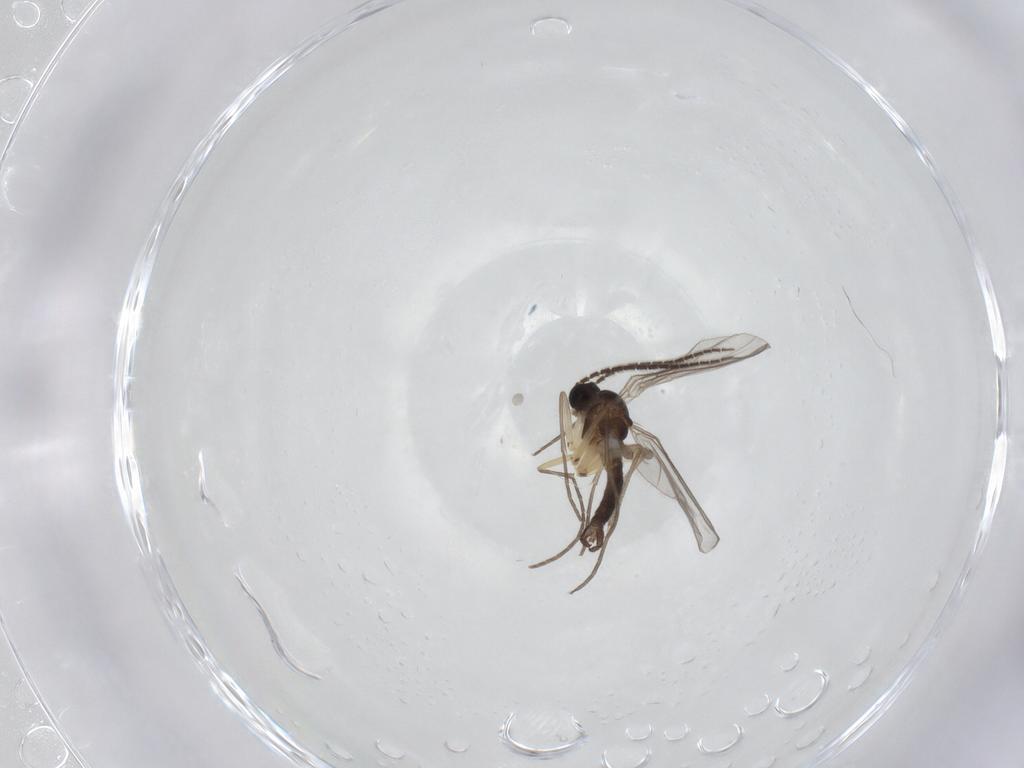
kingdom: Animalia
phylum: Arthropoda
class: Insecta
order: Diptera
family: Sciaridae
